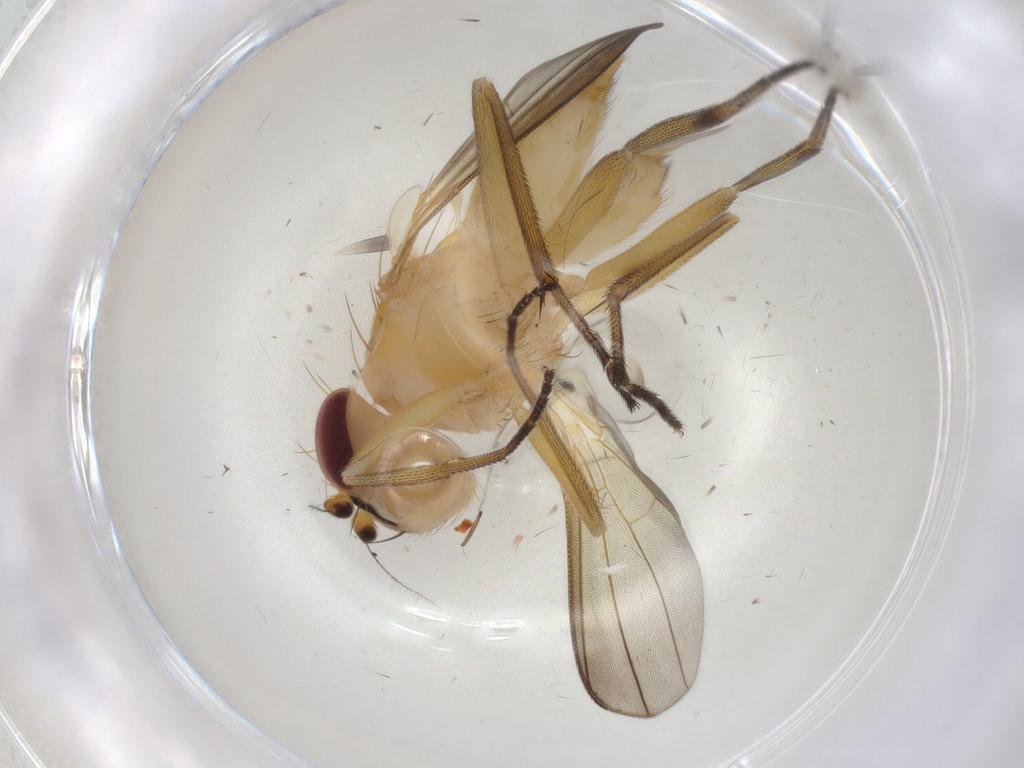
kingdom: Animalia
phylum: Arthropoda
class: Insecta
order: Diptera
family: Clusiidae
